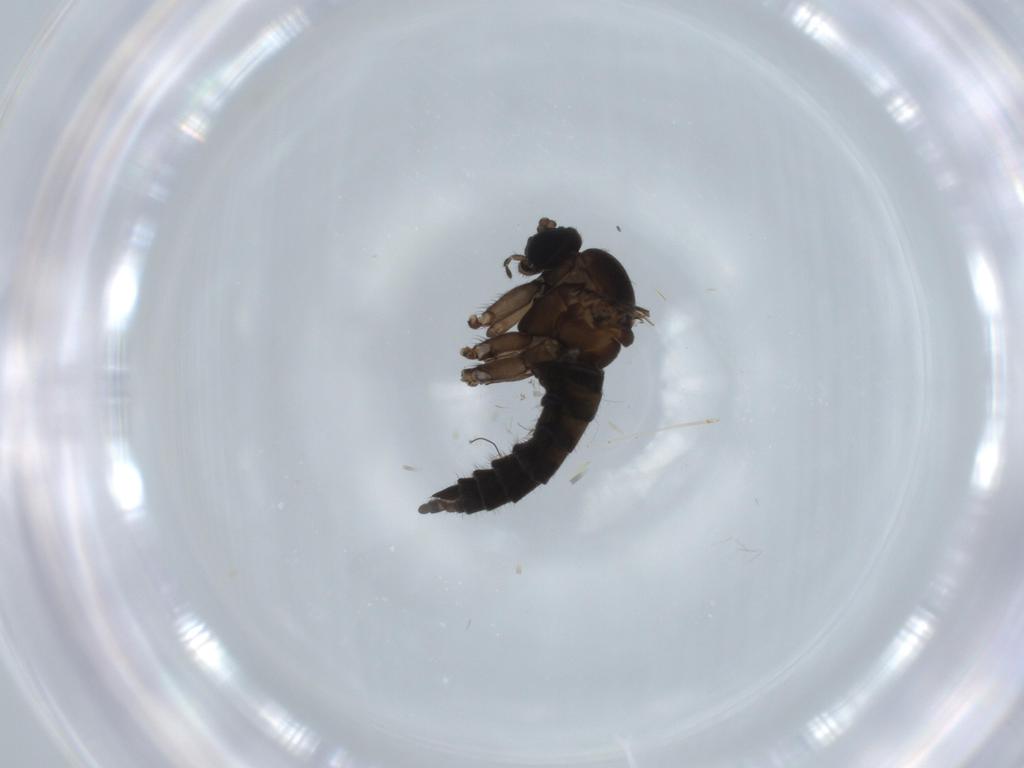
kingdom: Animalia
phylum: Arthropoda
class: Insecta
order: Diptera
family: Sciaridae
